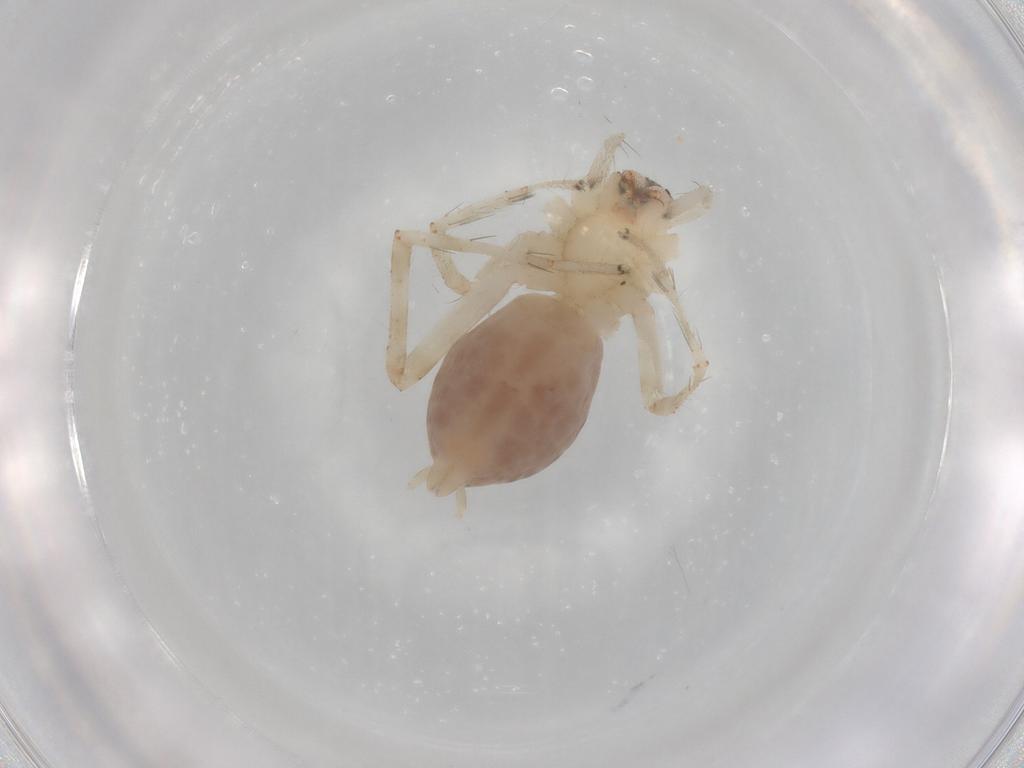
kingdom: Animalia
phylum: Arthropoda
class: Arachnida
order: Araneae
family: Anyphaenidae
